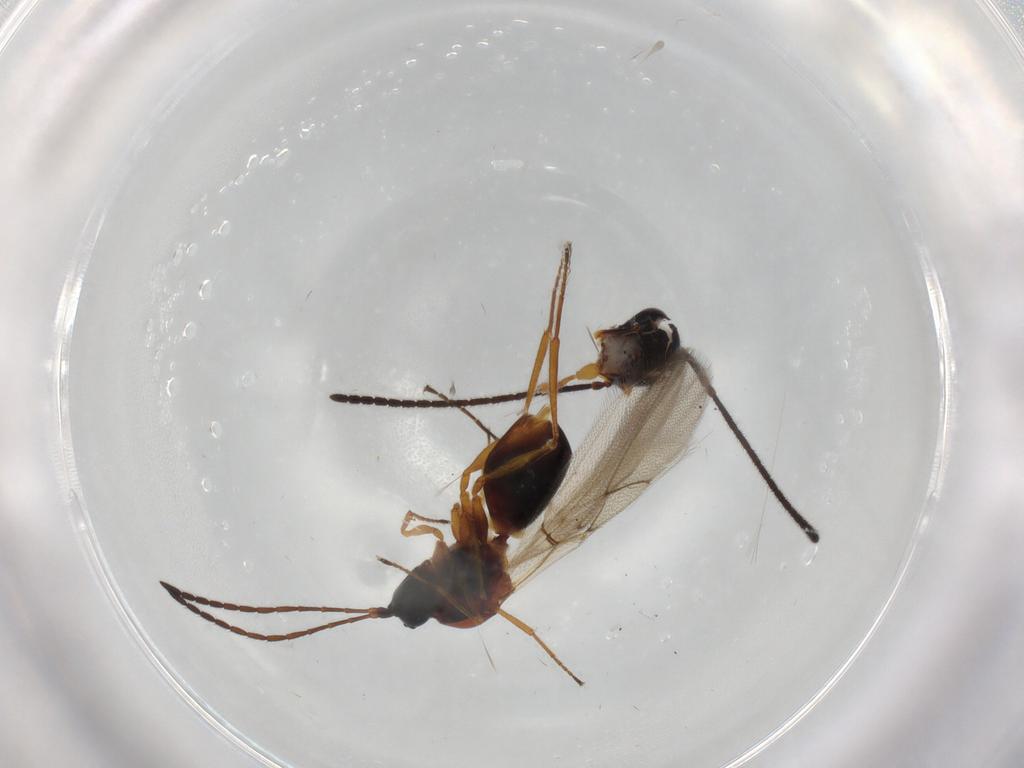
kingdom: Animalia
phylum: Arthropoda
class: Insecta
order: Hymenoptera
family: Figitidae
